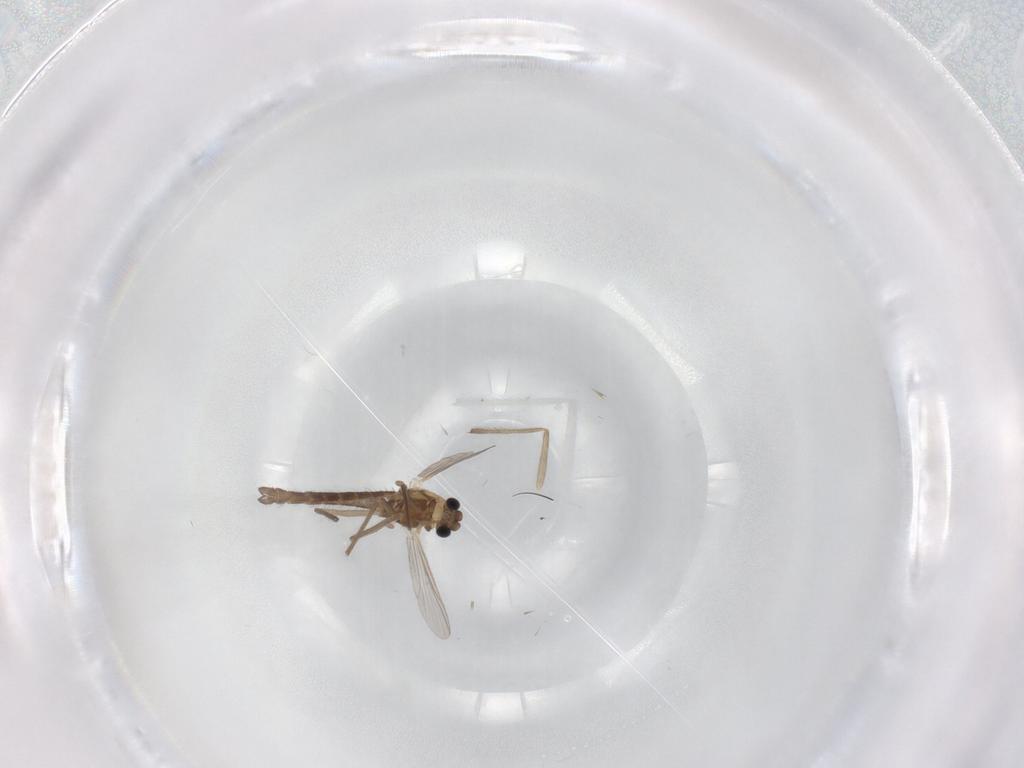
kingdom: Animalia
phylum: Arthropoda
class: Insecta
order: Diptera
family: Chironomidae
